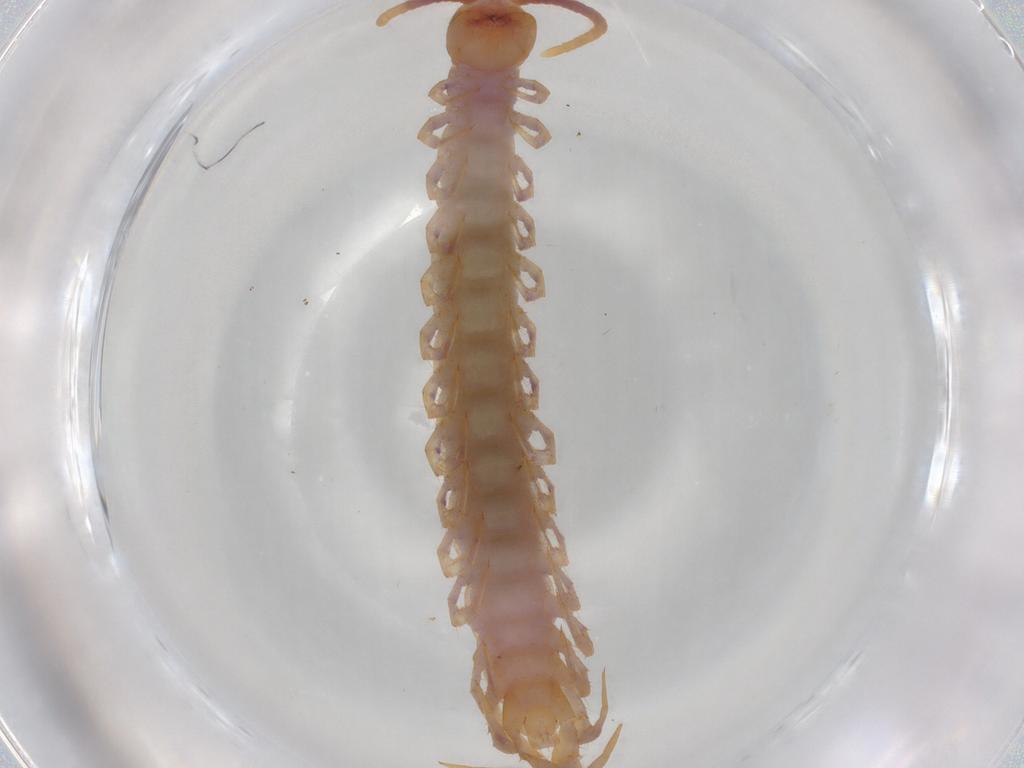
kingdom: Animalia
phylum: Arthropoda
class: Chilopoda
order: Lithobiomorpha
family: Lithobiidae
